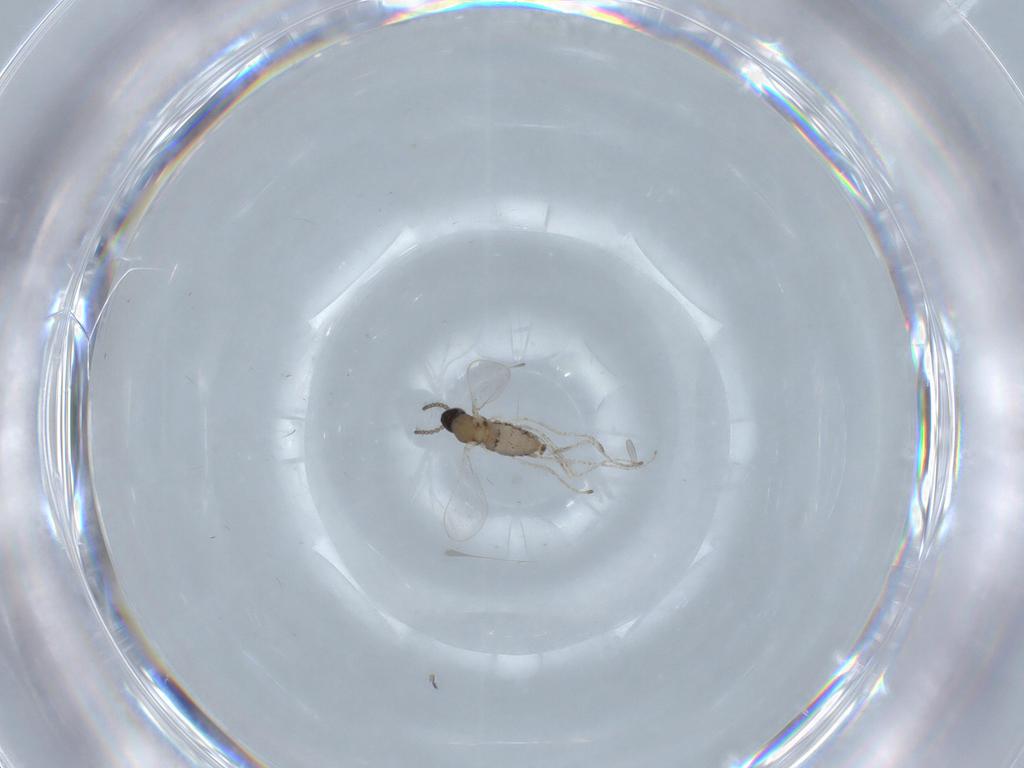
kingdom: Animalia
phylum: Arthropoda
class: Insecta
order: Diptera
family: Cecidomyiidae
